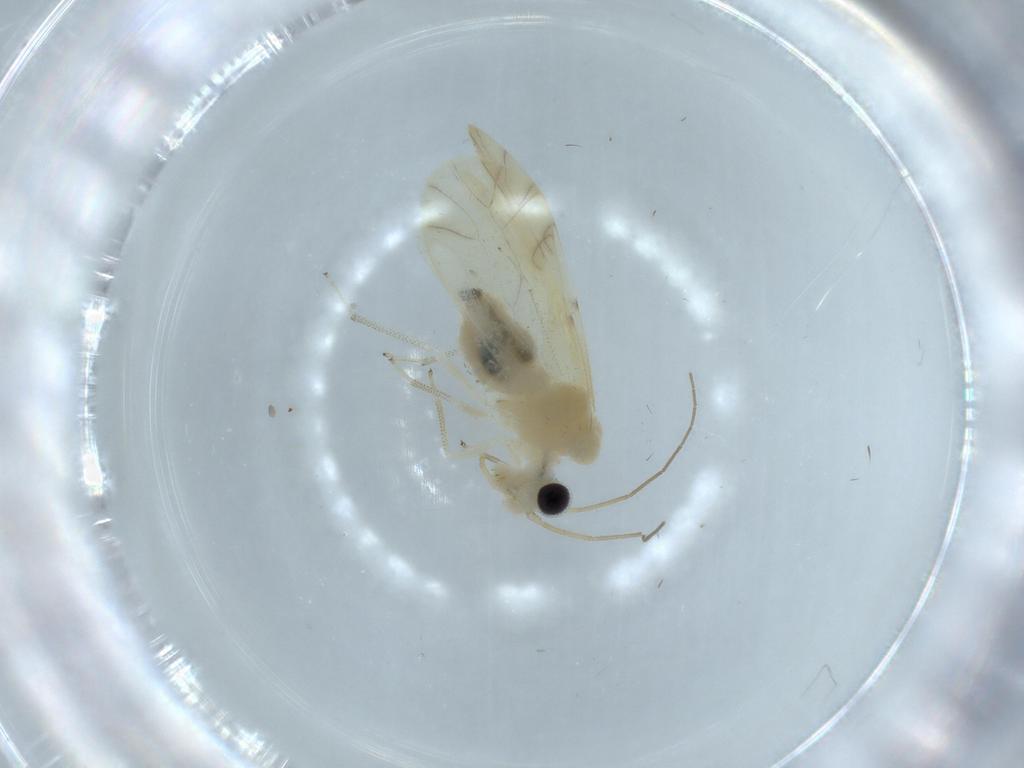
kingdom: Animalia
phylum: Arthropoda
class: Insecta
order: Psocodea
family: Caeciliusidae
